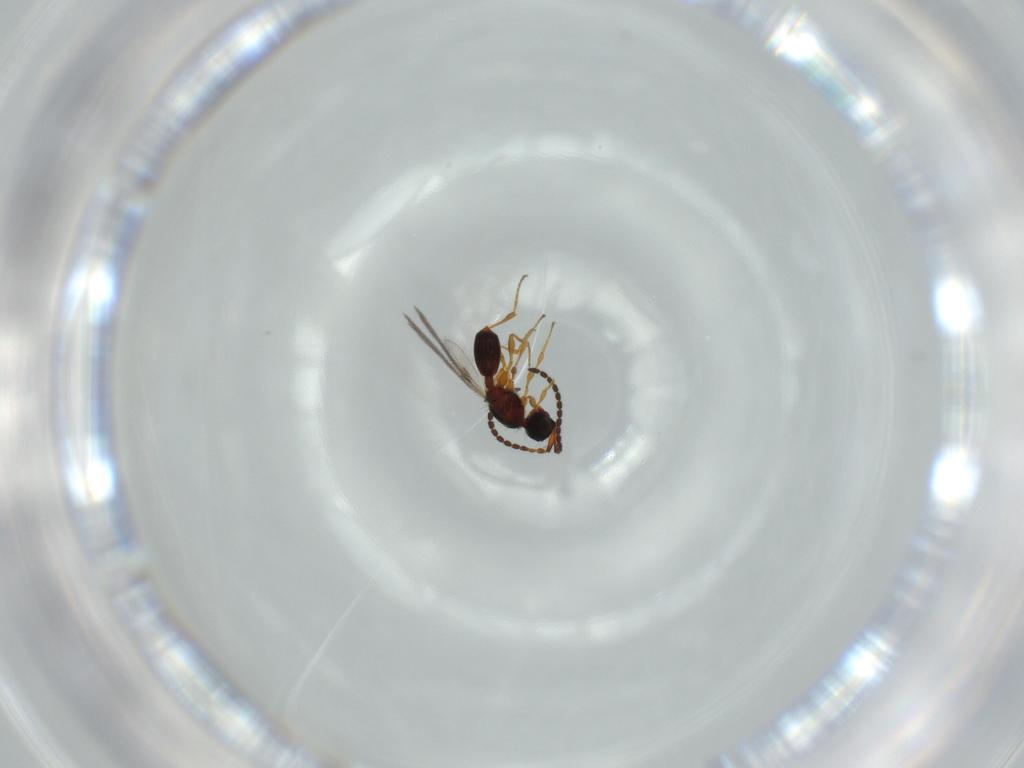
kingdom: Animalia
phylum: Arthropoda
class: Insecta
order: Hymenoptera
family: Diapriidae
